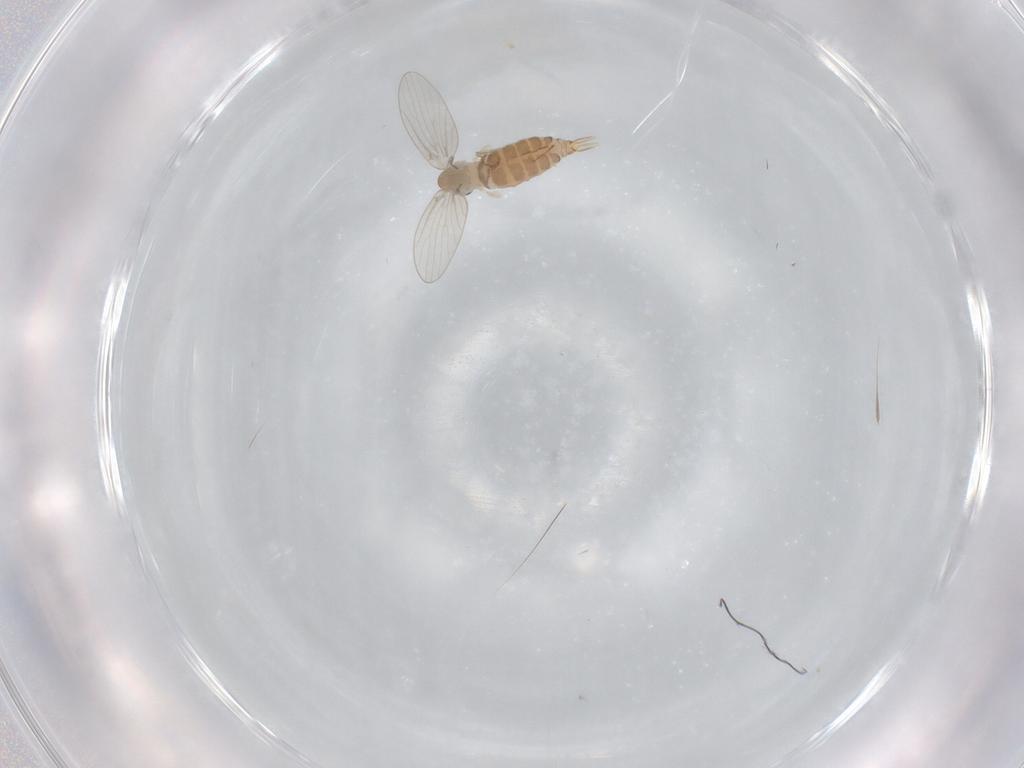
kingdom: Animalia
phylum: Arthropoda
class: Insecta
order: Diptera
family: Psychodidae
